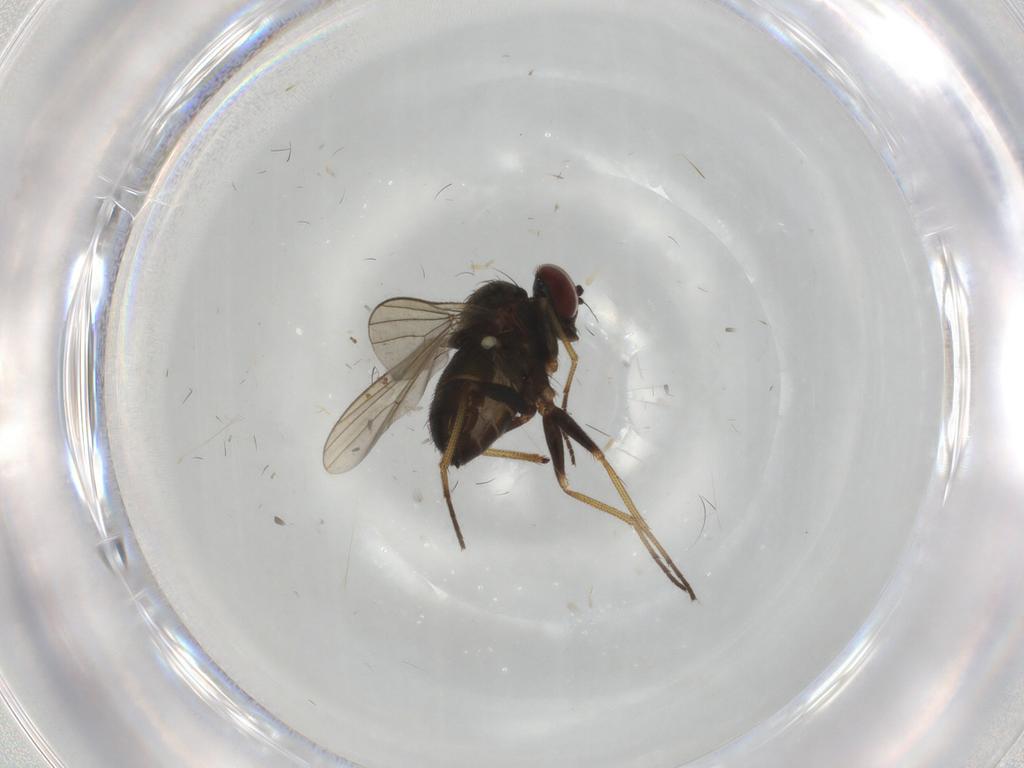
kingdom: Animalia
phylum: Arthropoda
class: Insecta
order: Diptera
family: Dolichopodidae
